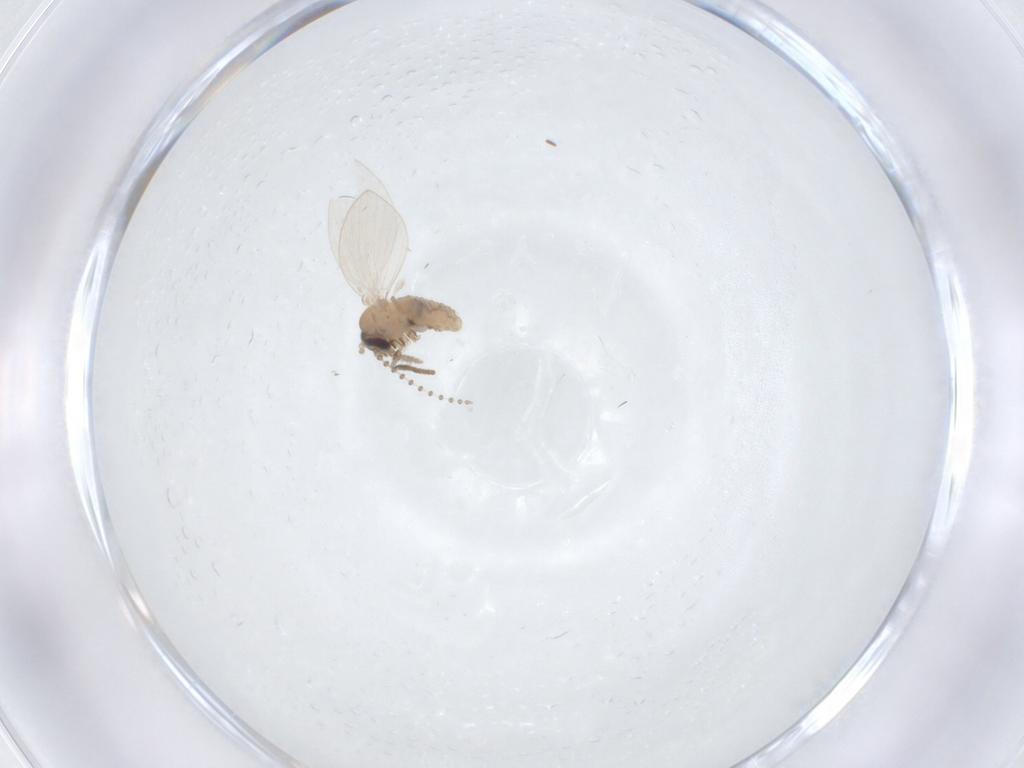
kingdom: Animalia
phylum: Arthropoda
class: Insecta
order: Diptera
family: Psychodidae
